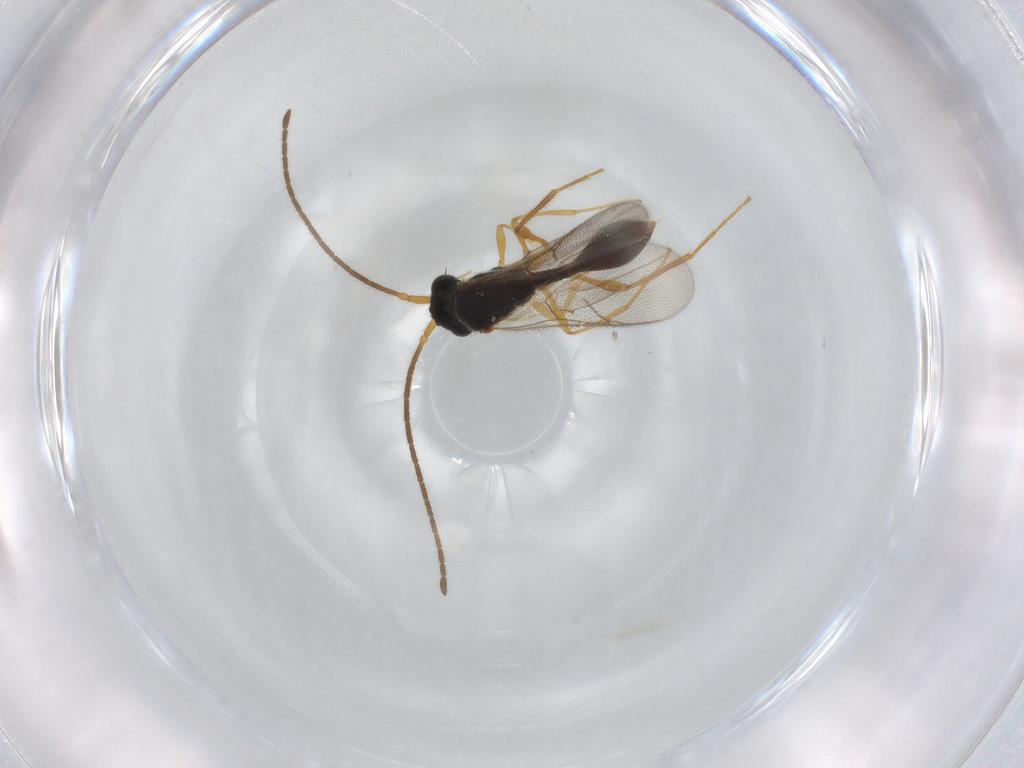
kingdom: Animalia
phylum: Arthropoda
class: Insecta
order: Hymenoptera
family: Diapriidae
